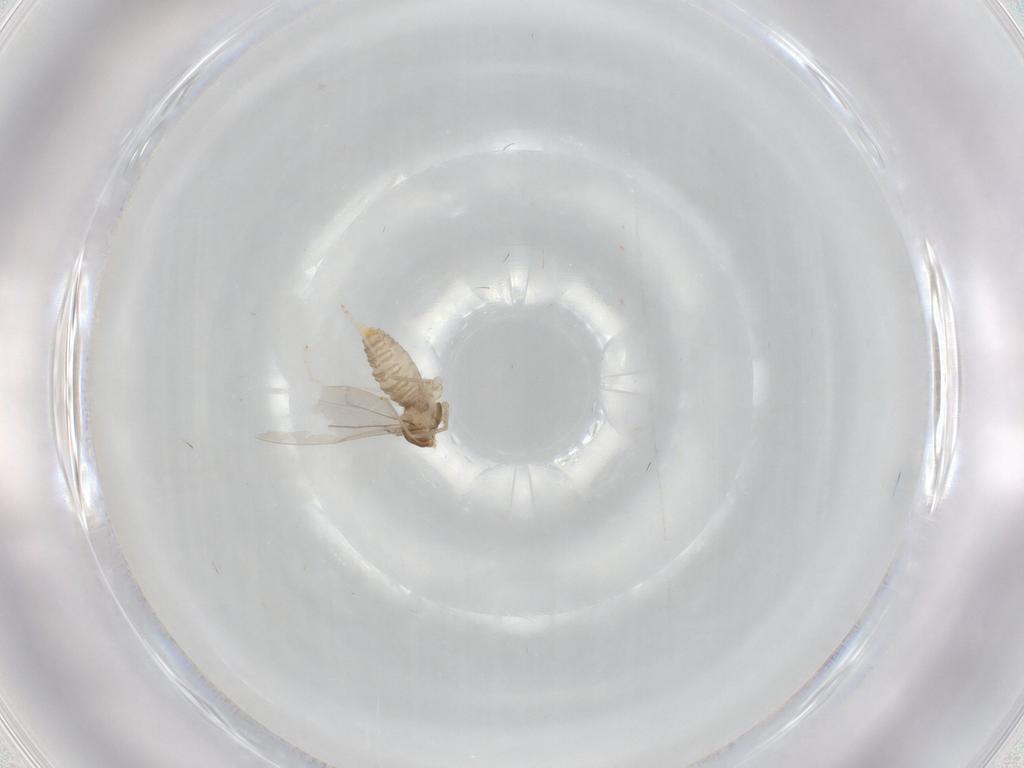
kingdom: Animalia
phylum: Arthropoda
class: Insecta
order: Diptera
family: Cecidomyiidae
